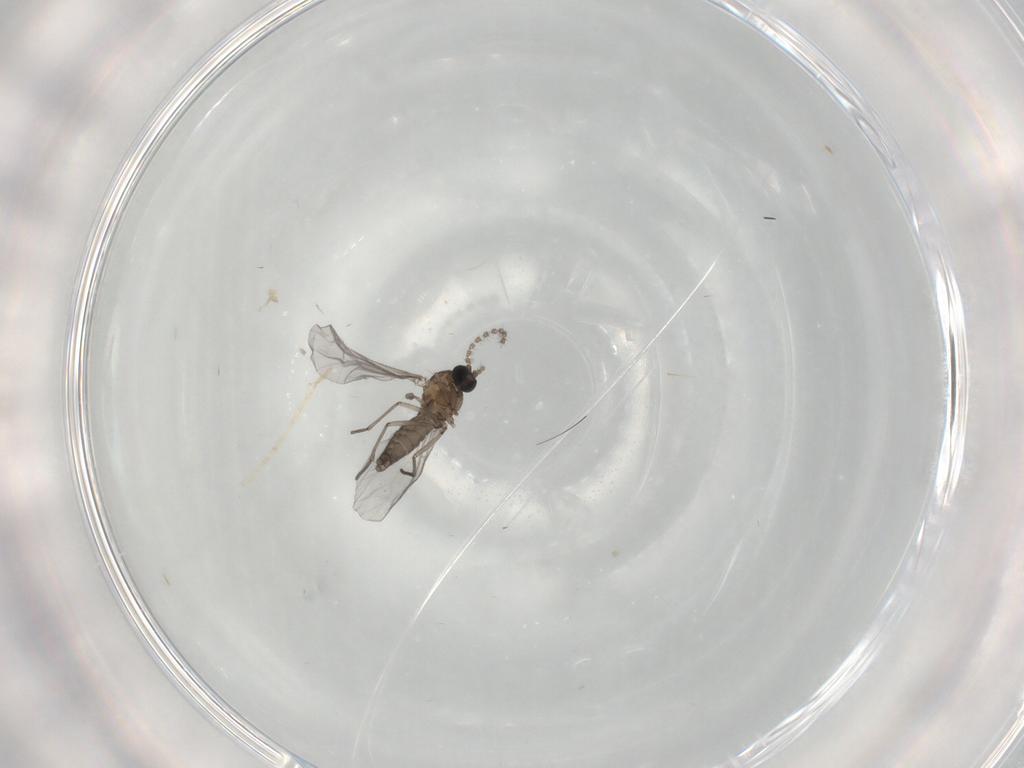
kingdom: Animalia
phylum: Arthropoda
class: Insecta
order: Diptera
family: Sciaridae
